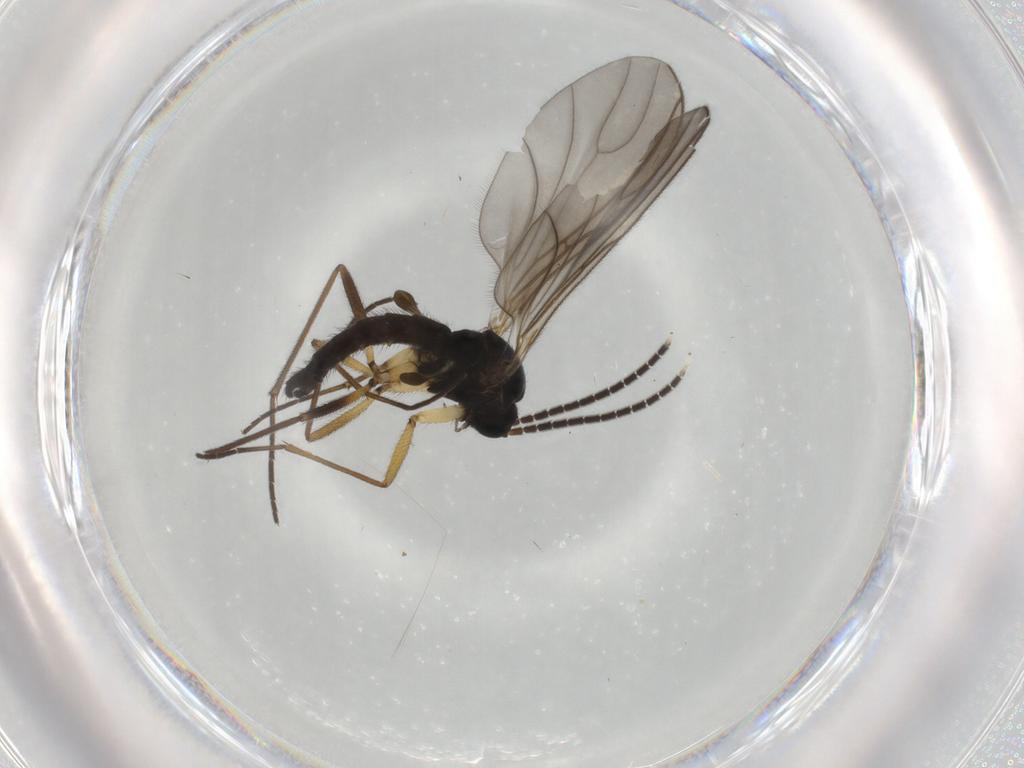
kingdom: Animalia
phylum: Arthropoda
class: Insecta
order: Diptera
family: Sciaridae
